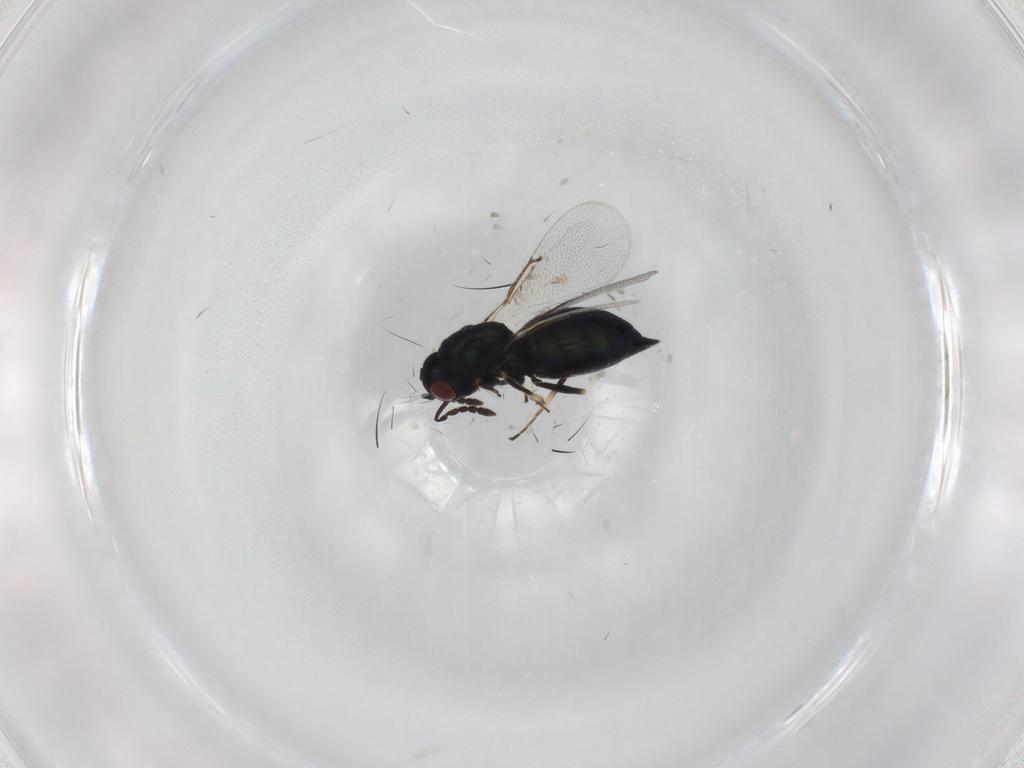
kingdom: Animalia
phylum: Arthropoda
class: Insecta
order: Hymenoptera
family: Eulophidae
